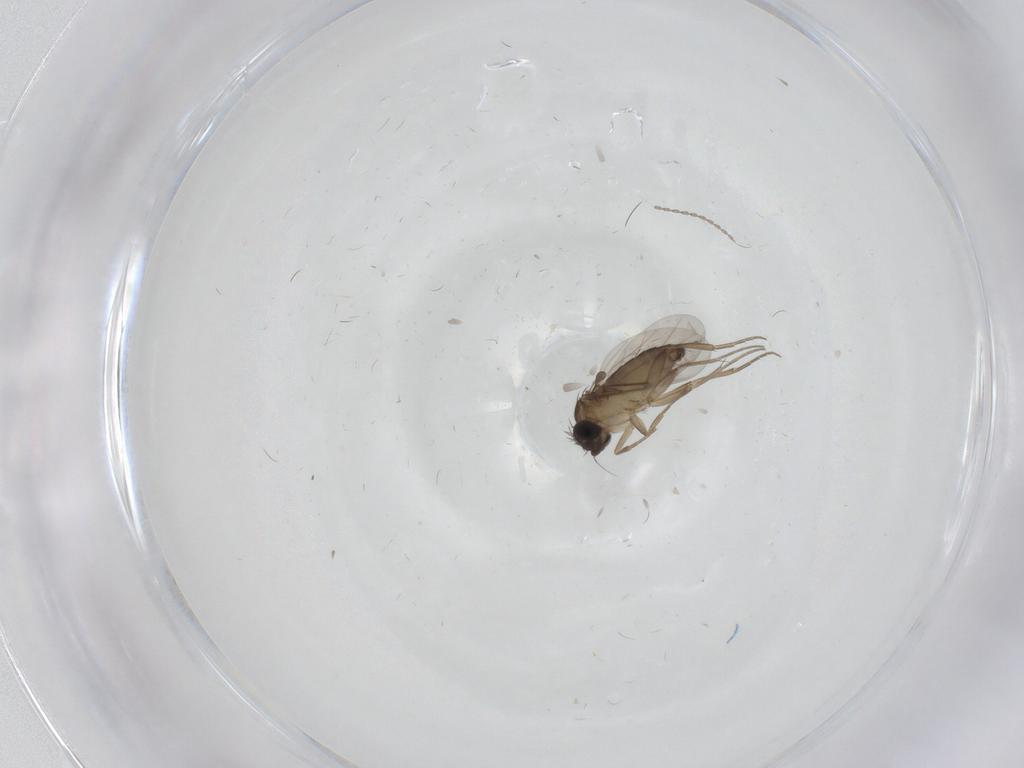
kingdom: Animalia
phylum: Arthropoda
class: Insecta
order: Diptera
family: Phoridae
